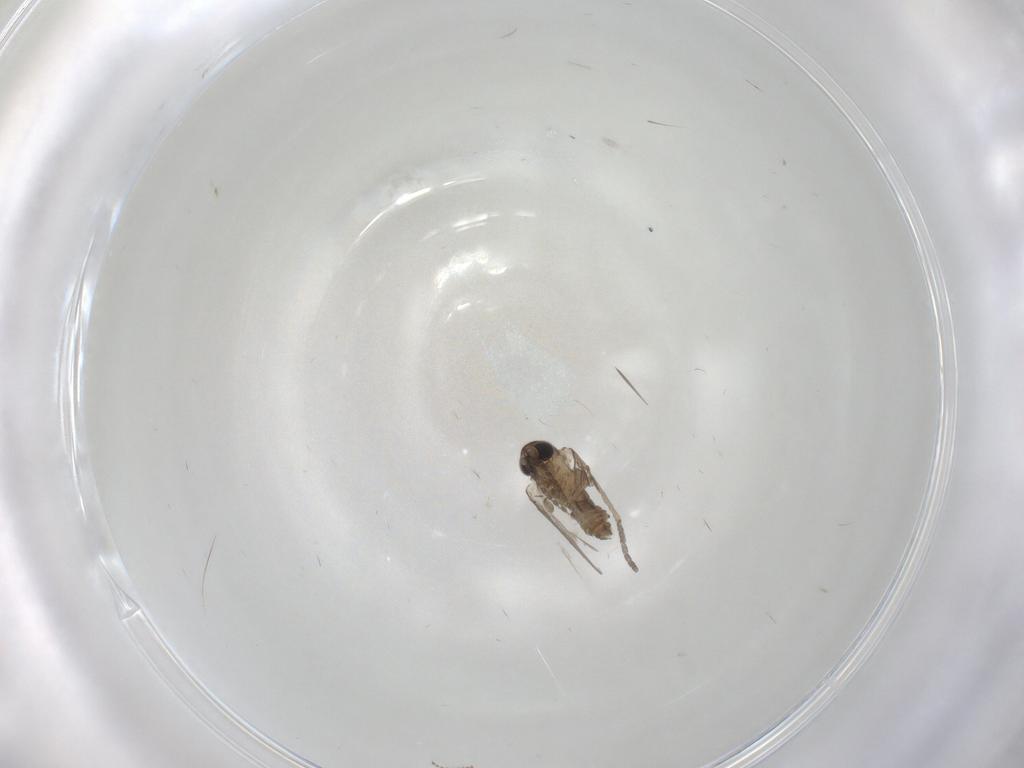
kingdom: Animalia
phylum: Arthropoda
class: Insecta
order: Diptera
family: Cecidomyiidae
